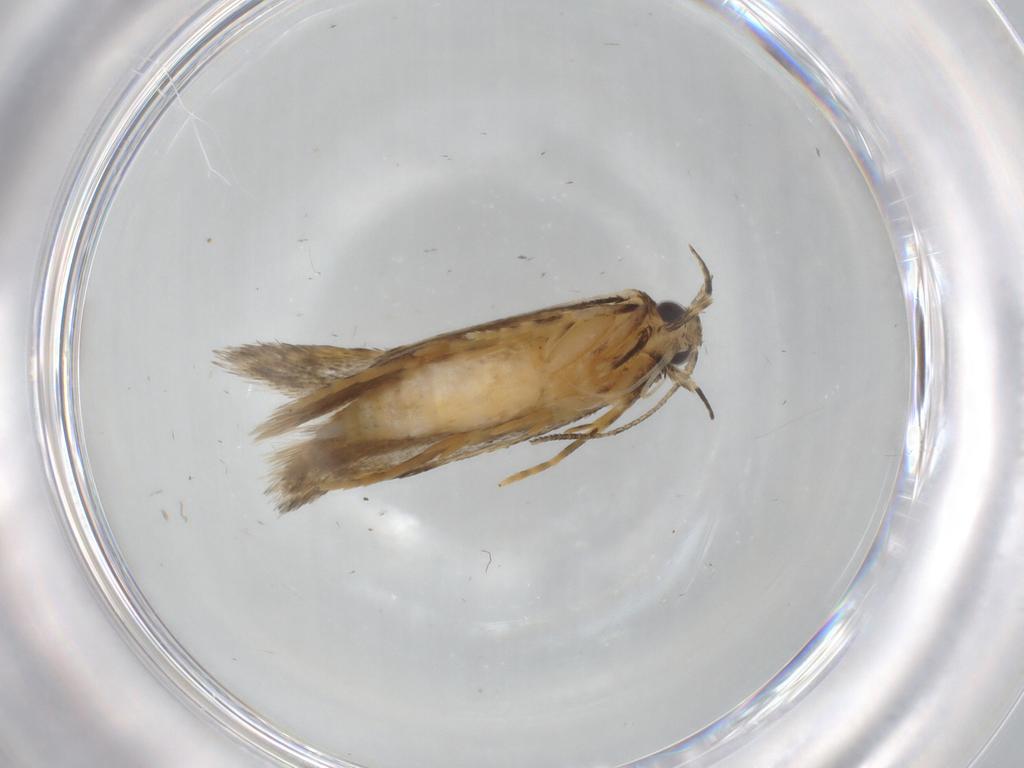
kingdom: Animalia
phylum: Arthropoda
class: Insecta
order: Lepidoptera
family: Autostichidae
